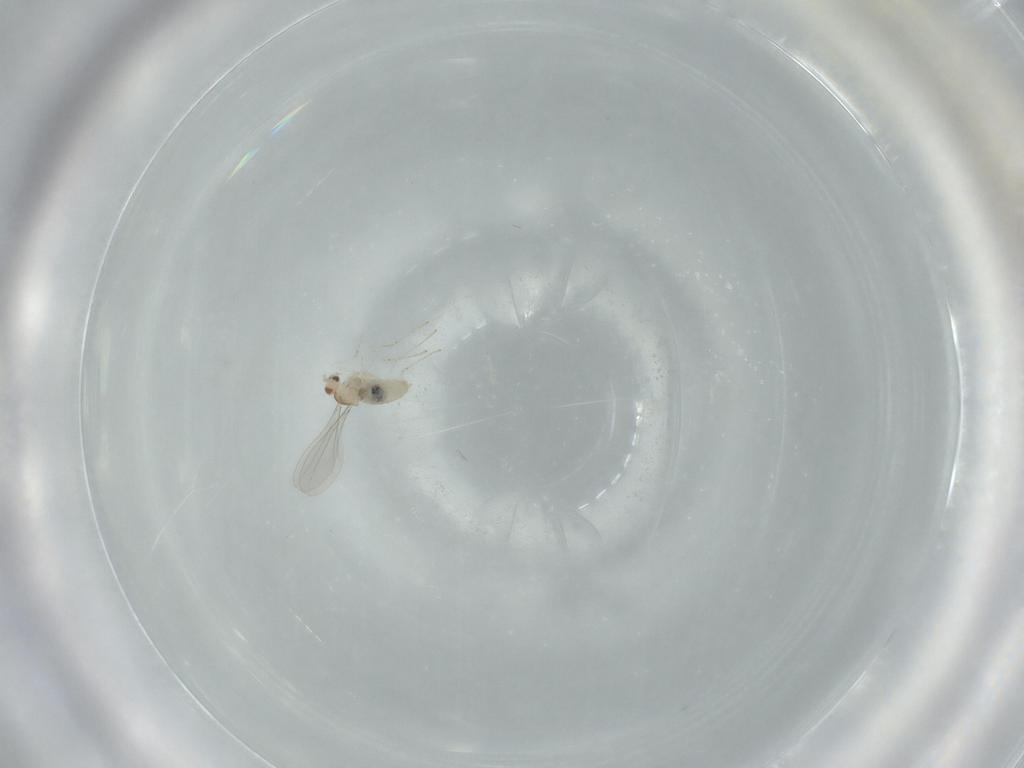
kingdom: Animalia
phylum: Arthropoda
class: Insecta
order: Diptera
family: Cecidomyiidae
